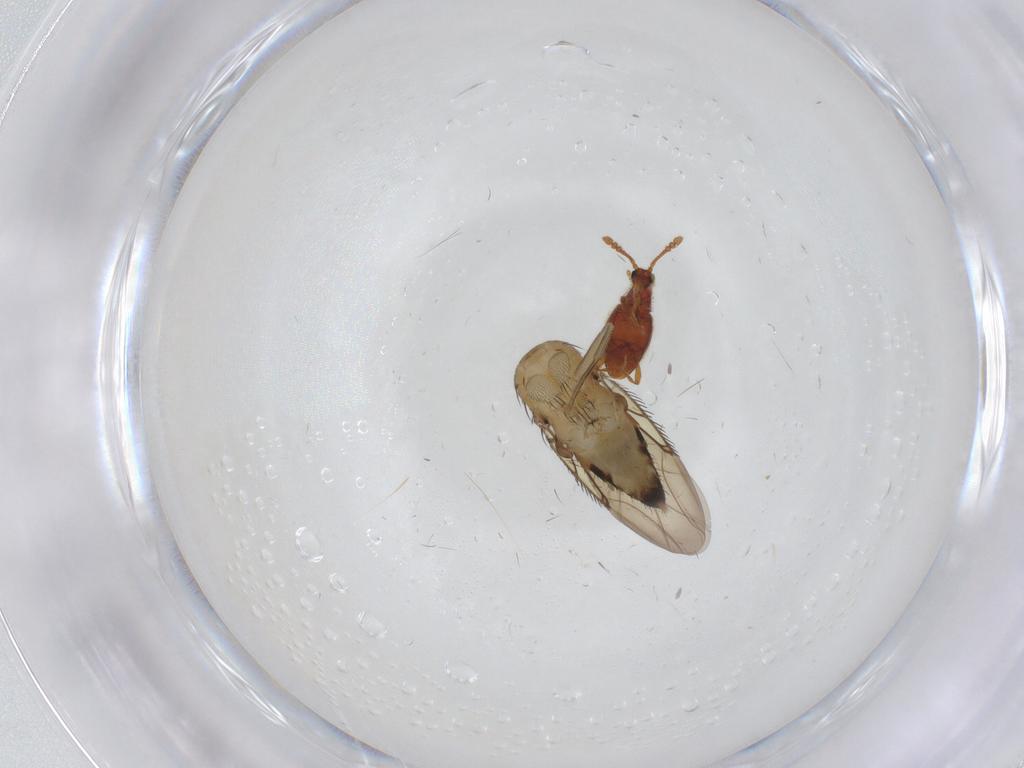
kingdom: Animalia
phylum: Arthropoda
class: Insecta
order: Diptera
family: Phoridae
